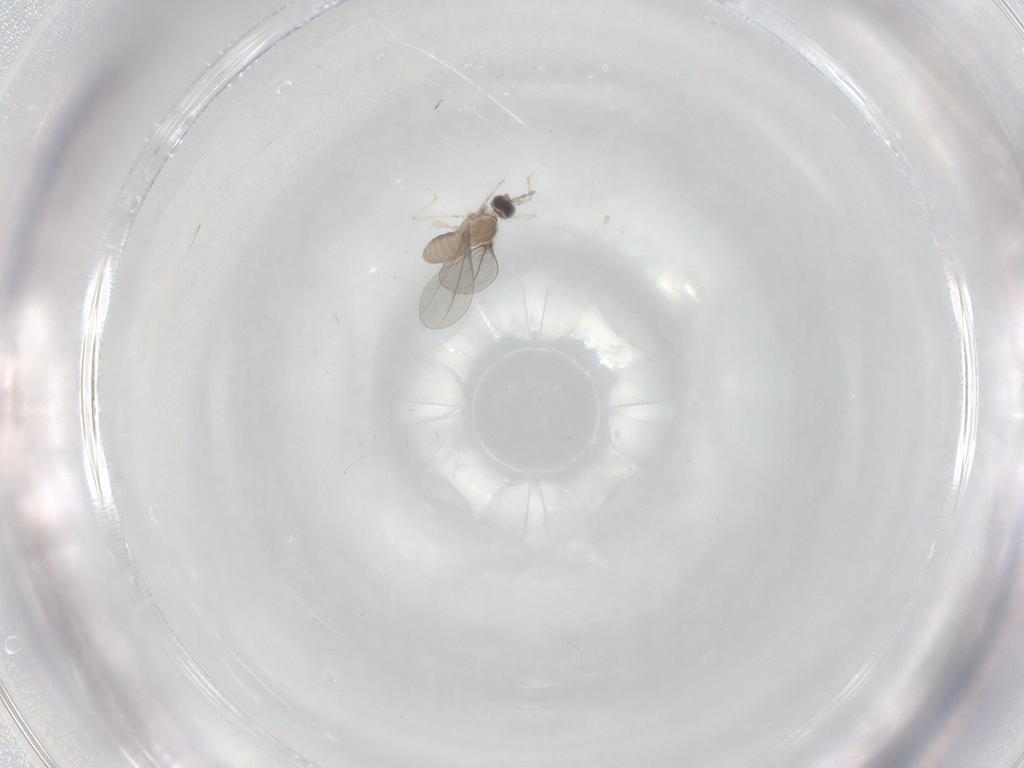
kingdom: Animalia
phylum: Arthropoda
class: Insecta
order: Diptera
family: Cecidomyiidae
